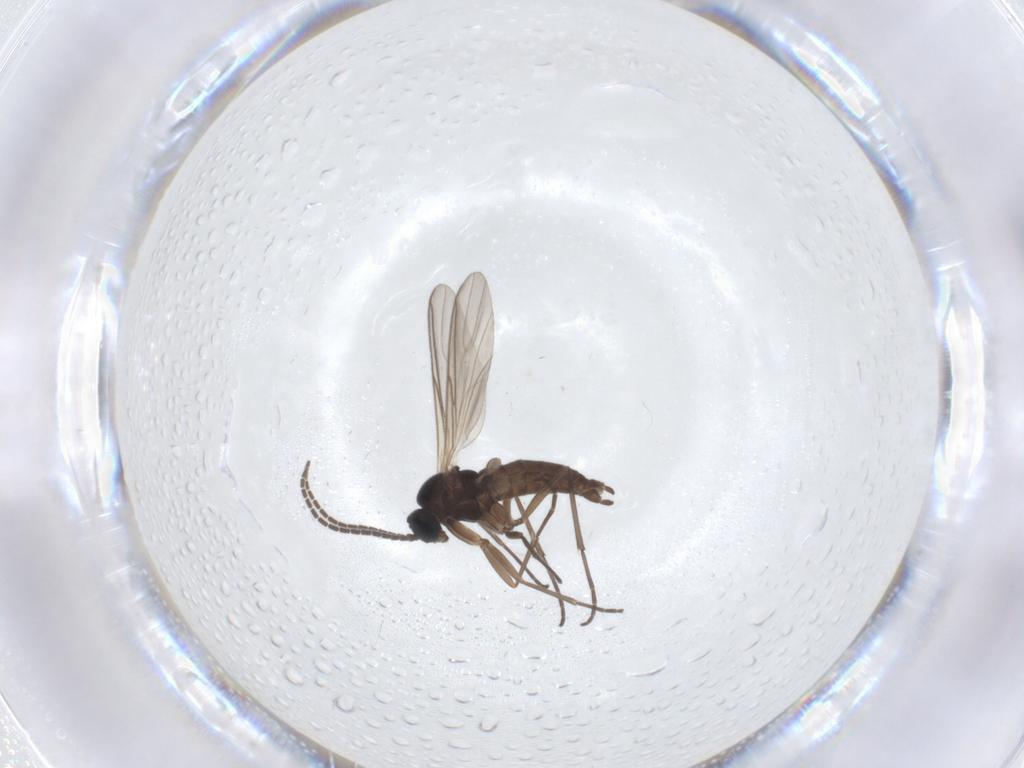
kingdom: Animalia
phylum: Arthropoda
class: Insecta
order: Diptera
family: Sciaridae
